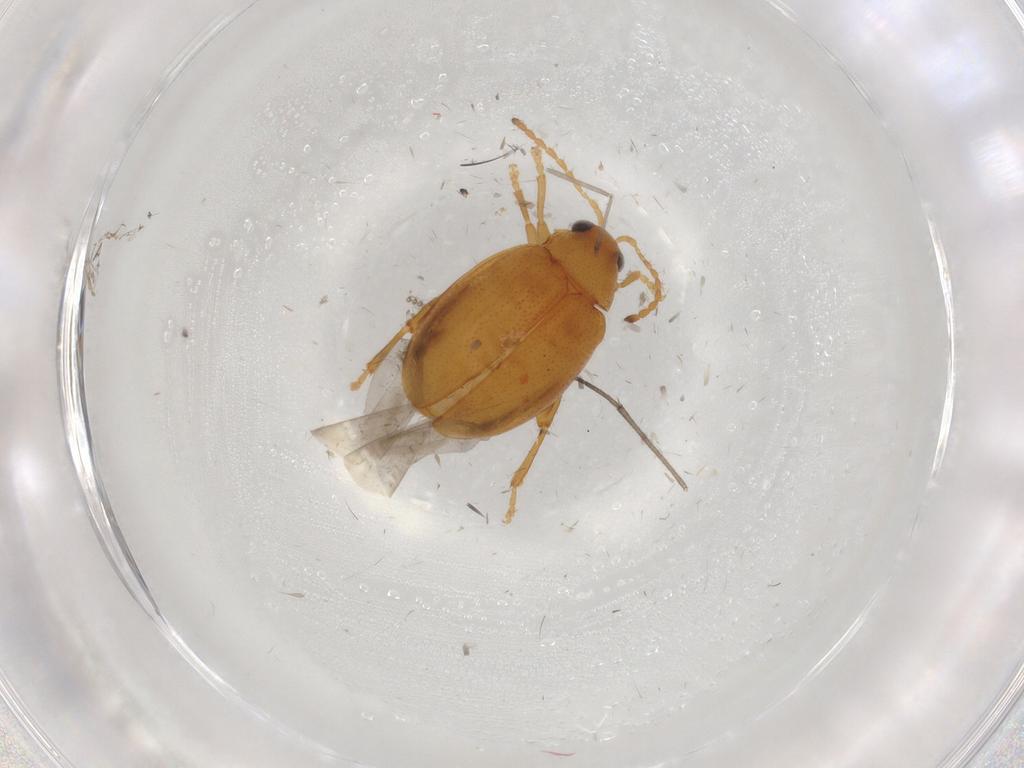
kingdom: Animalia
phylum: Arthropoda
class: Insecta
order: Coleoptera
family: Chrysomelidae
